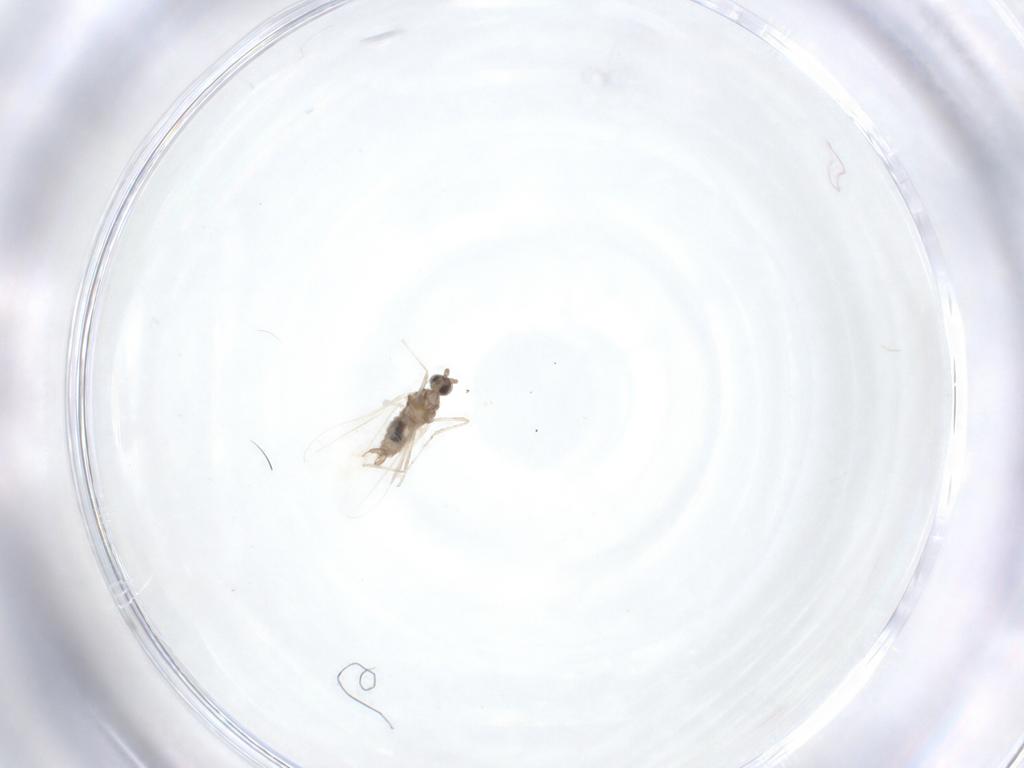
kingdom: Animalia
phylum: Arthropoda
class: Insecta
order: Diptera
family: Cecidomyiidae
